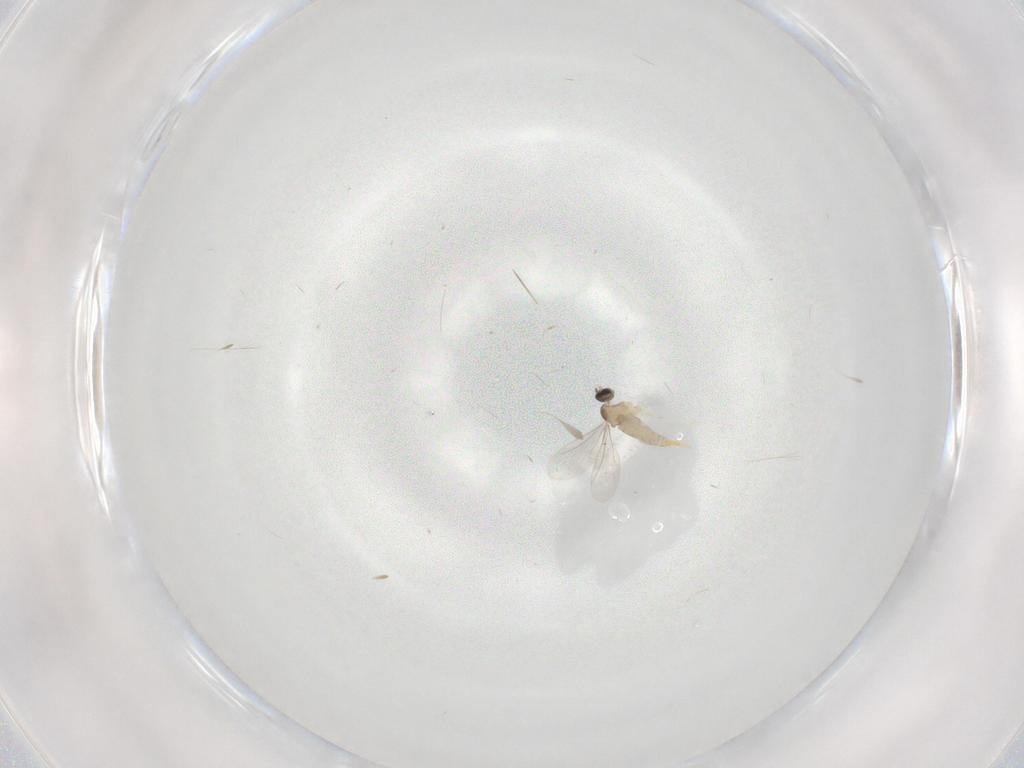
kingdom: Animalia
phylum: Arthropoda
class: Insecta
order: Diptera
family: Cecidomyiidae
